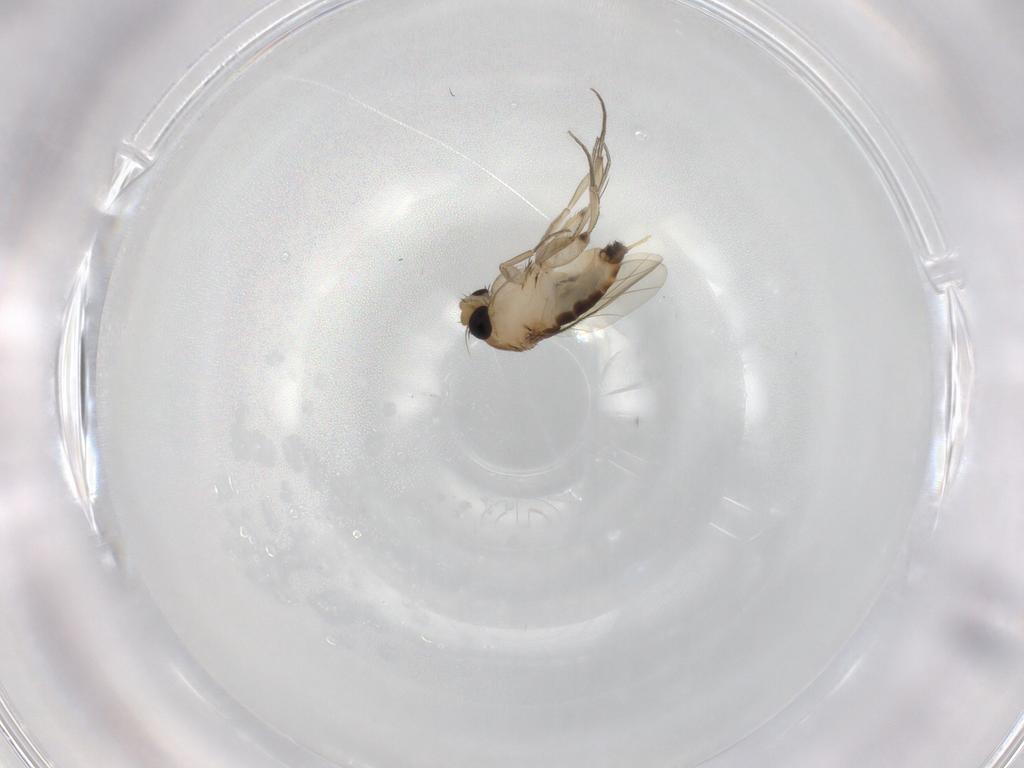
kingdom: Animalia
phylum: Arthropoda
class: Insecta
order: Diptera
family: Phoridae
